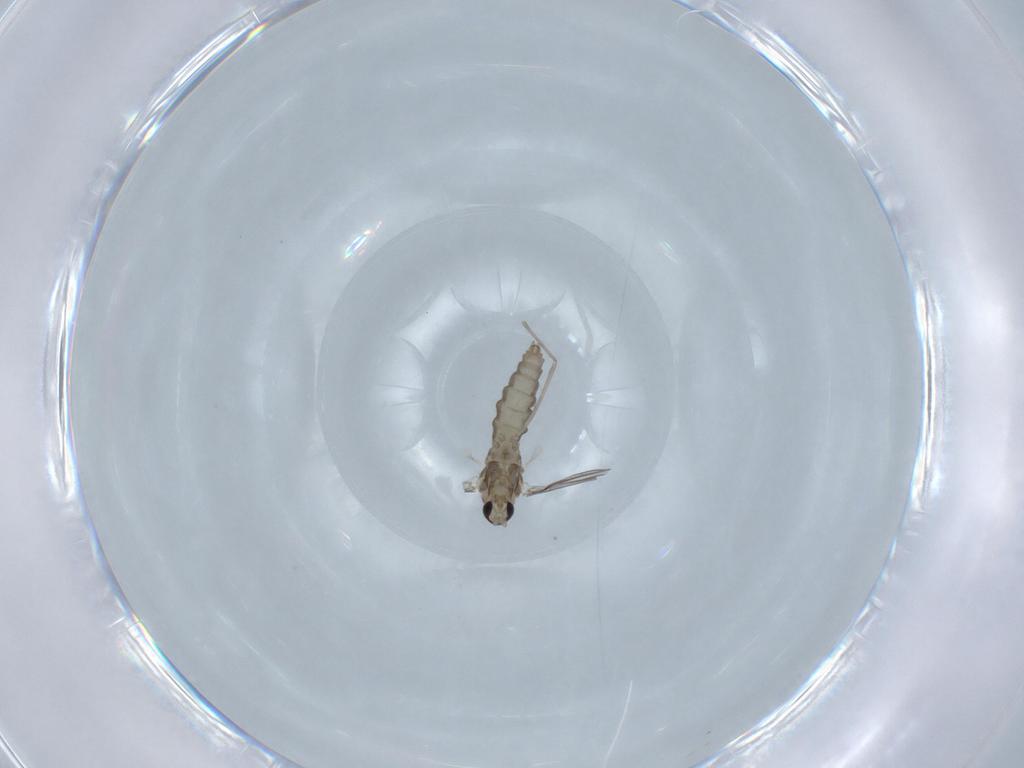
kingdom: Animalia
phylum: Arthropoda
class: Insecta
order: Diptera
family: Cecidomyiidae
